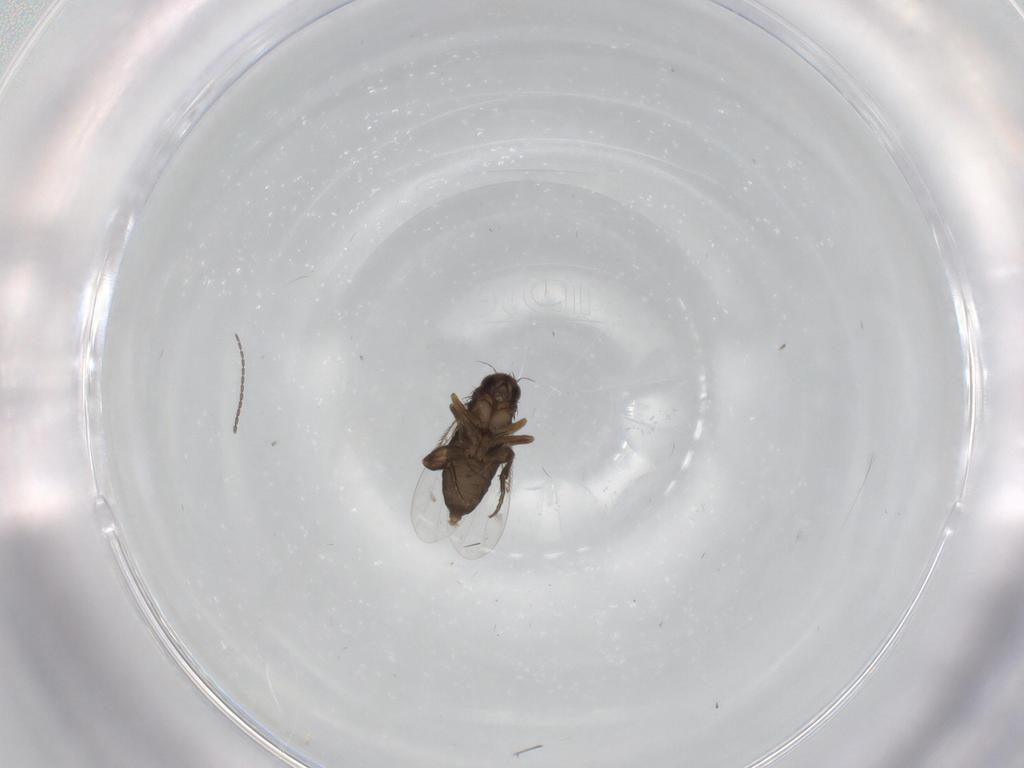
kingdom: Animalia
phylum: Arthropoda
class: Insecta
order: Diptera
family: Phoridae
